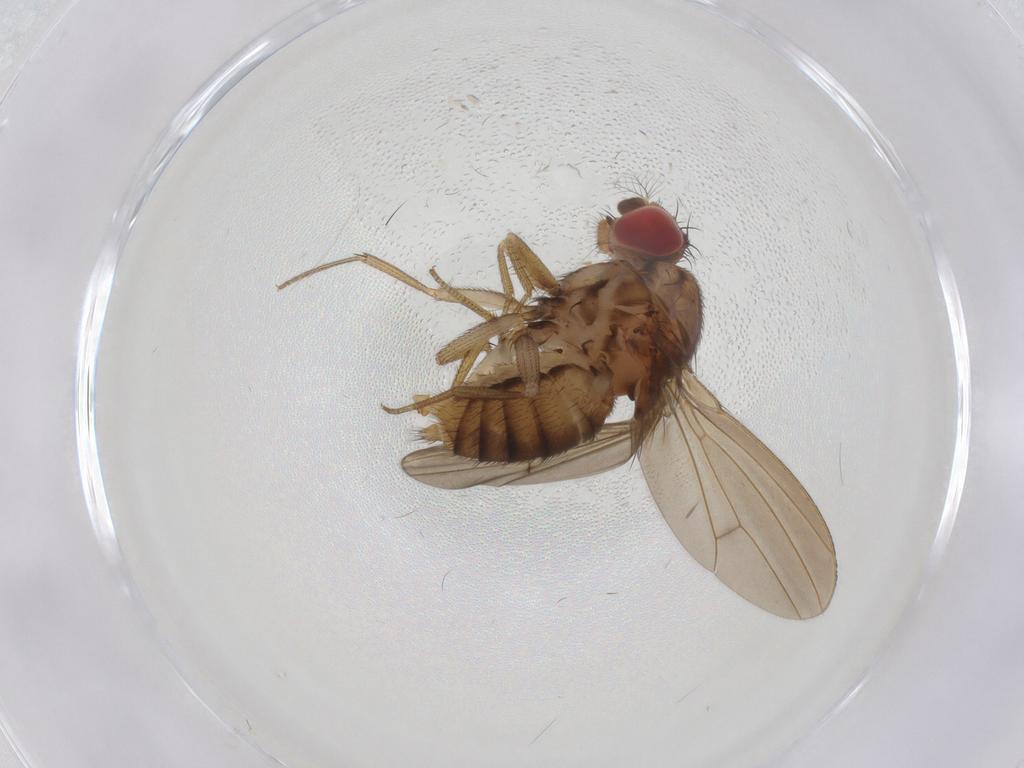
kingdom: Animalia
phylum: Arthropoda
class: Insecta
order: Diptera
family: Drosophilidae
